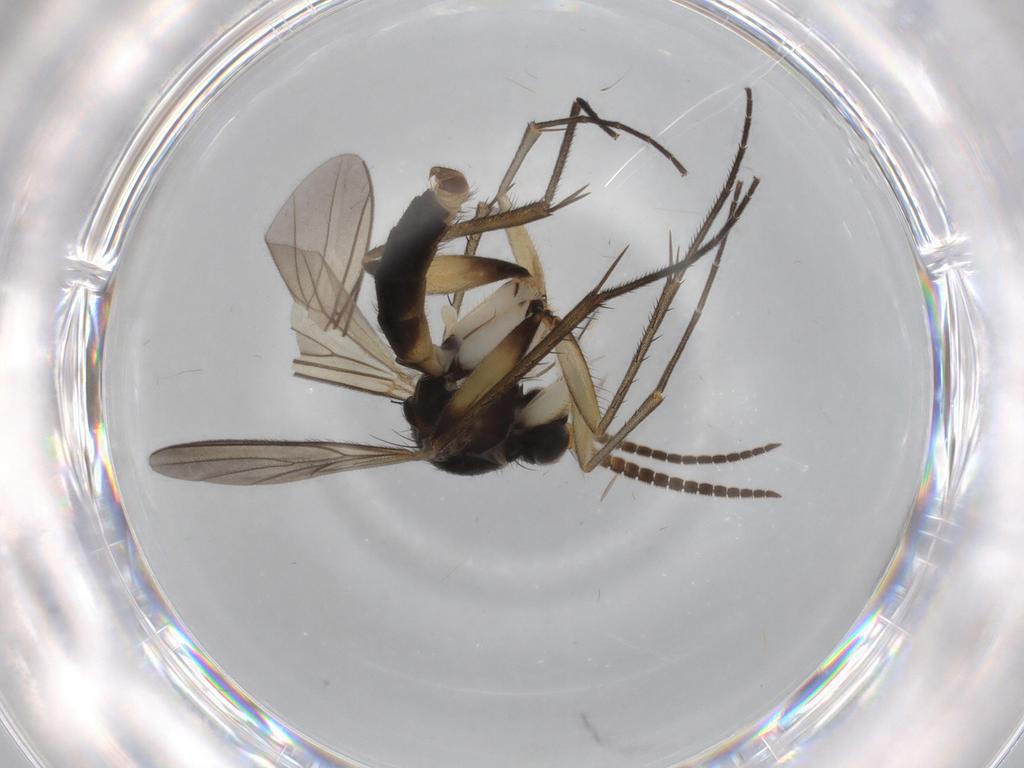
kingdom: Animalia
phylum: Arthropoda
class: Insecta
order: Diptera
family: Cecidomyiidae
